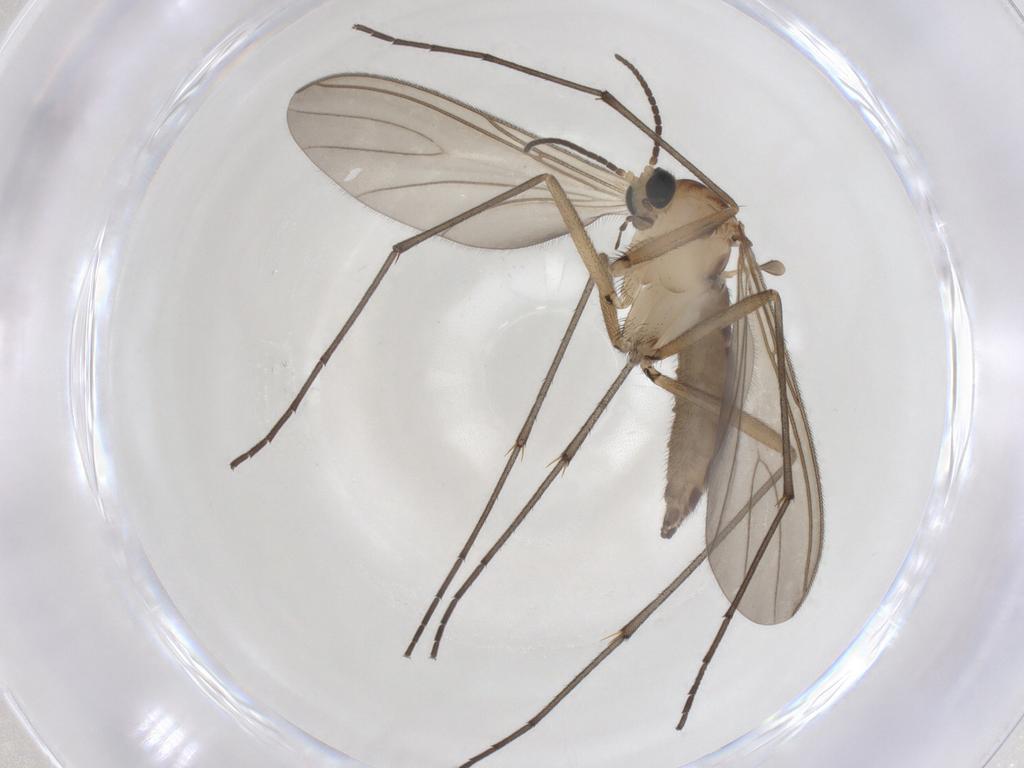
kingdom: Animalia
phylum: Arthropoda
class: Insecta
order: Diptera
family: Sciaridae
